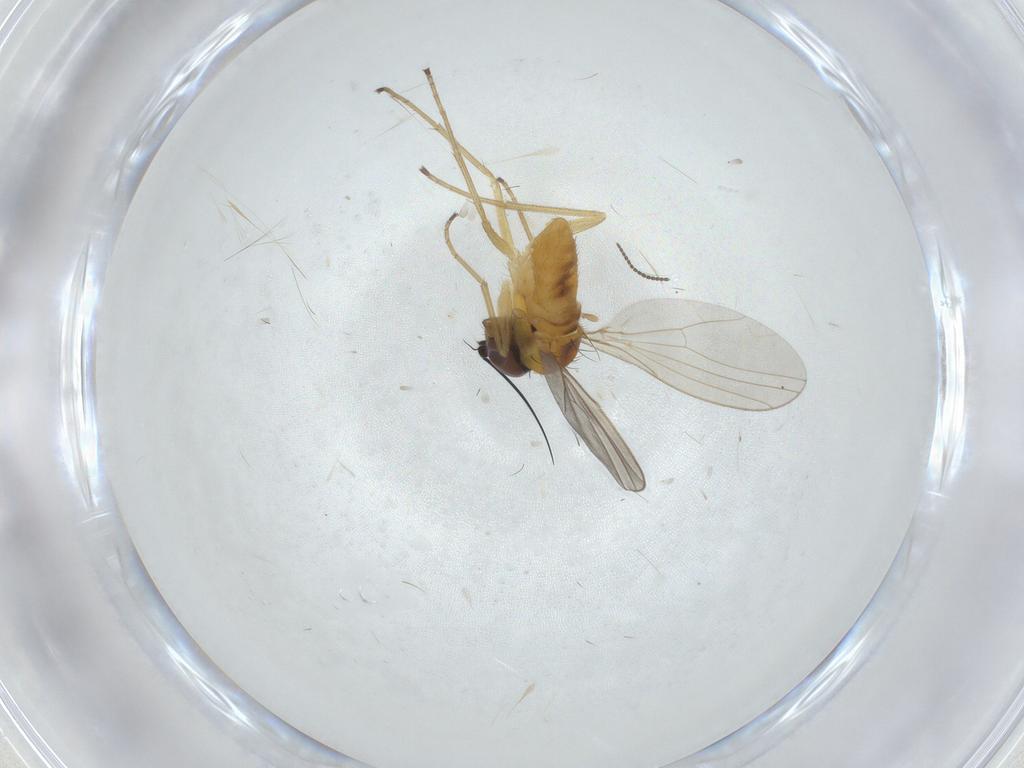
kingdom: Animalia
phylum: Arthropoda
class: Insecta
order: Diptera
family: Dolichopodidae
